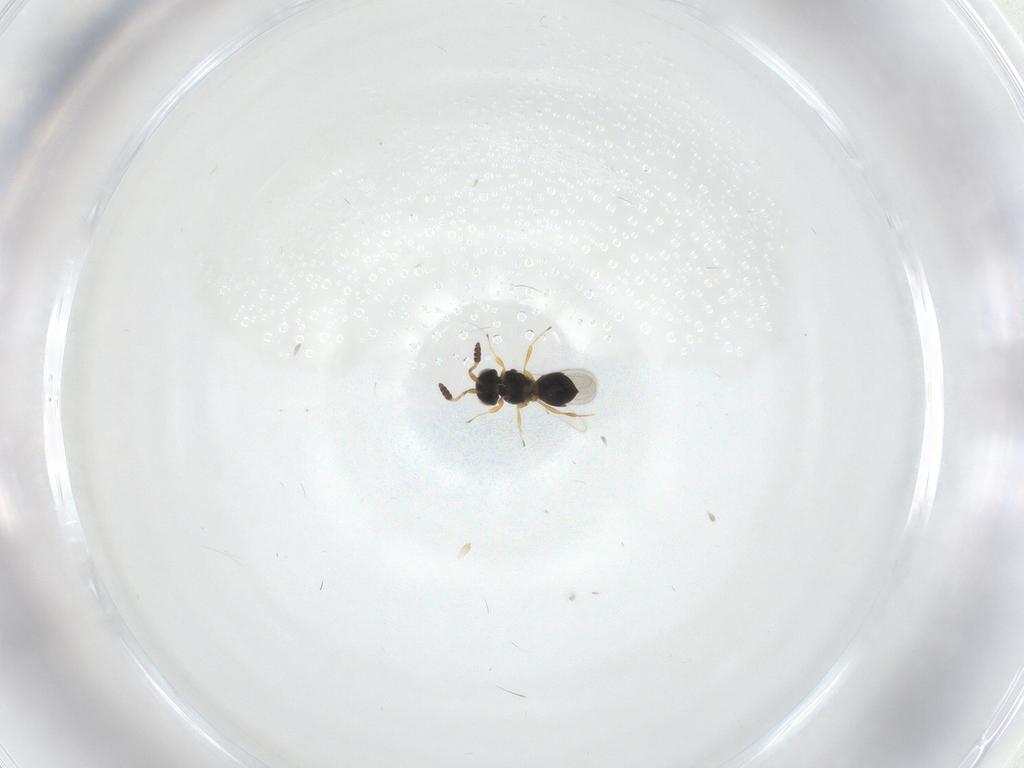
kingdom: Animalia
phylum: Arthropoda
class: Insecta
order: Hymenoptera
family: Scelionidae
